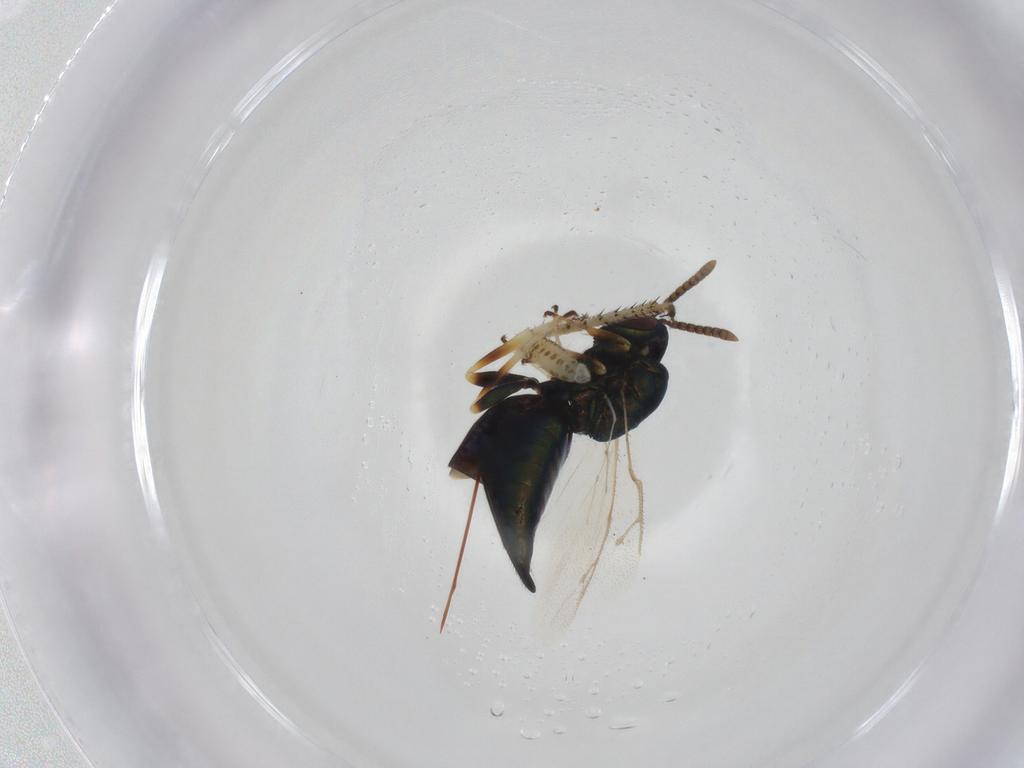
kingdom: Animalia
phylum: Arthropoda
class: Insecta
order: Hymenoptera
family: Pteromalidae
